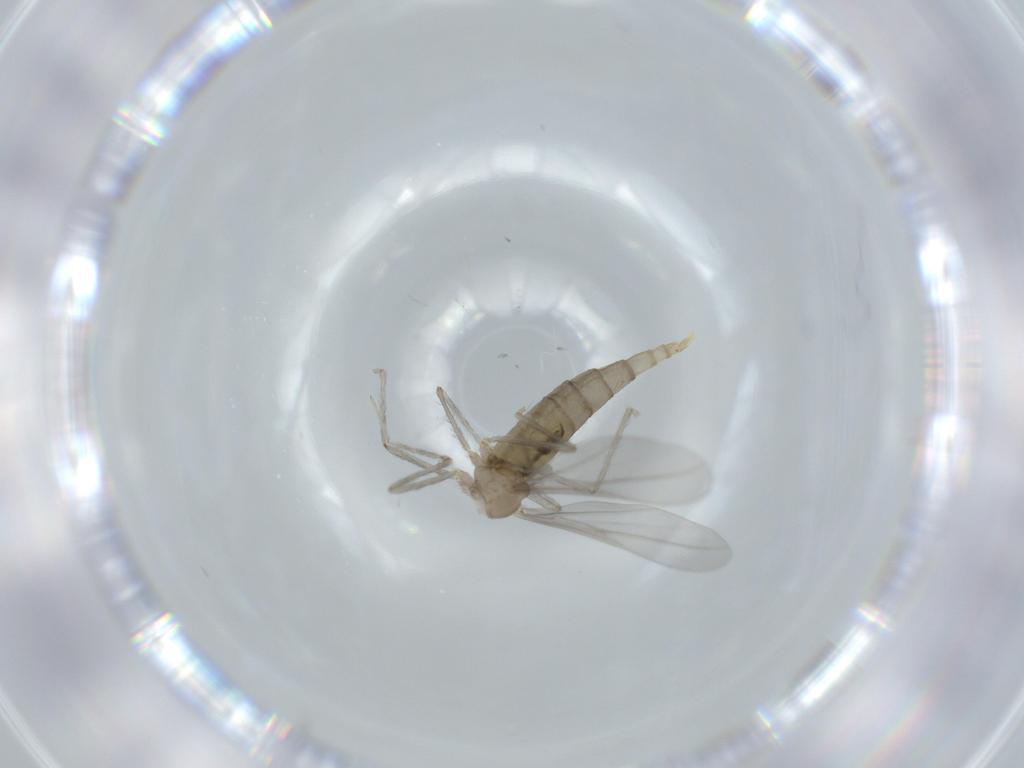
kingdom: Animalia
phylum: Arthropoda
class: Insecta
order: Diptera
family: Cecidomyiidae
